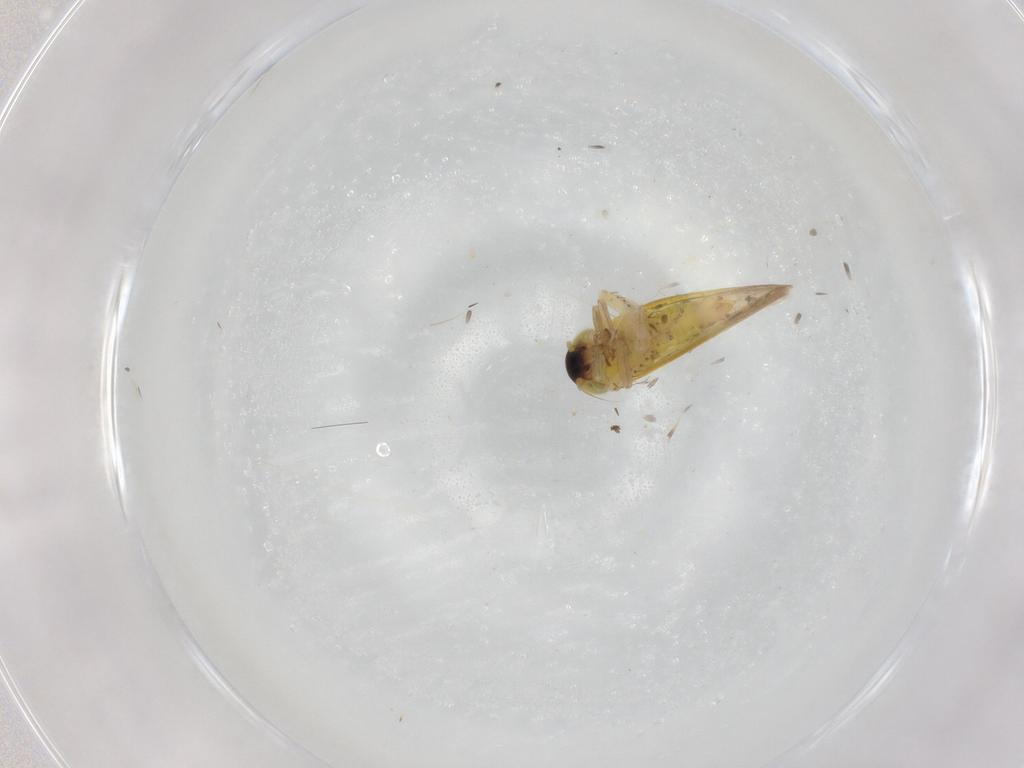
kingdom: Animalia
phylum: Arthropoda
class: Insecta
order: Hemiptera
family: Cicadellidae
